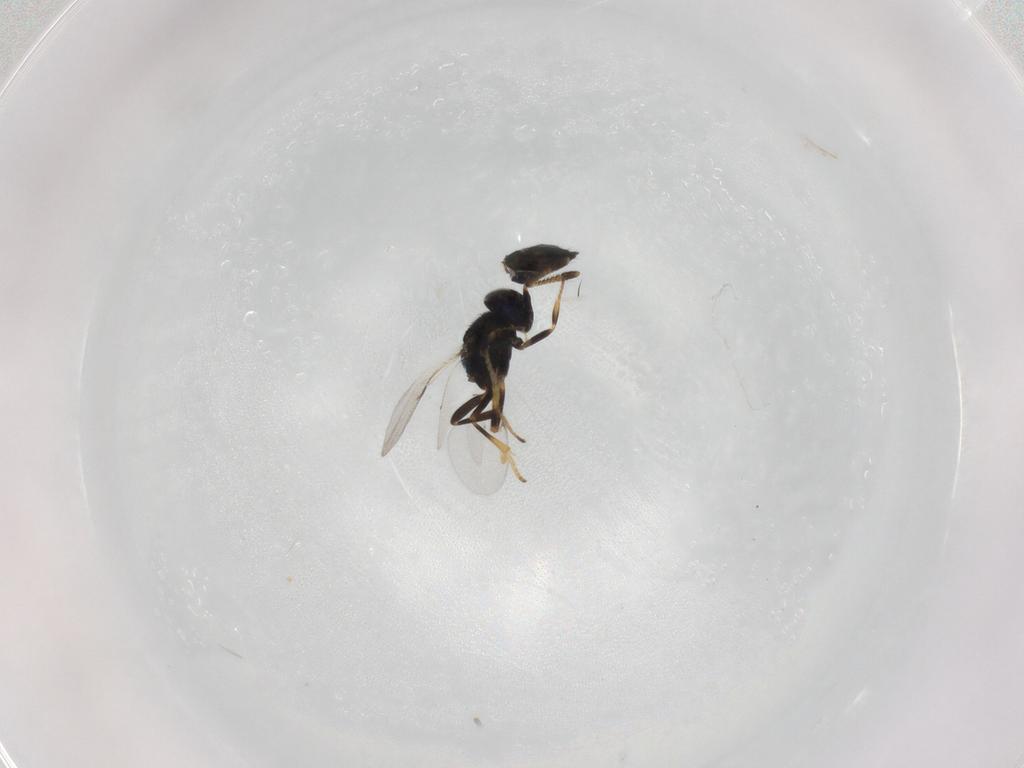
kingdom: Animalia
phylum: Arthropoda
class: Insecta
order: Hymenoptera
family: Encyrtidae
